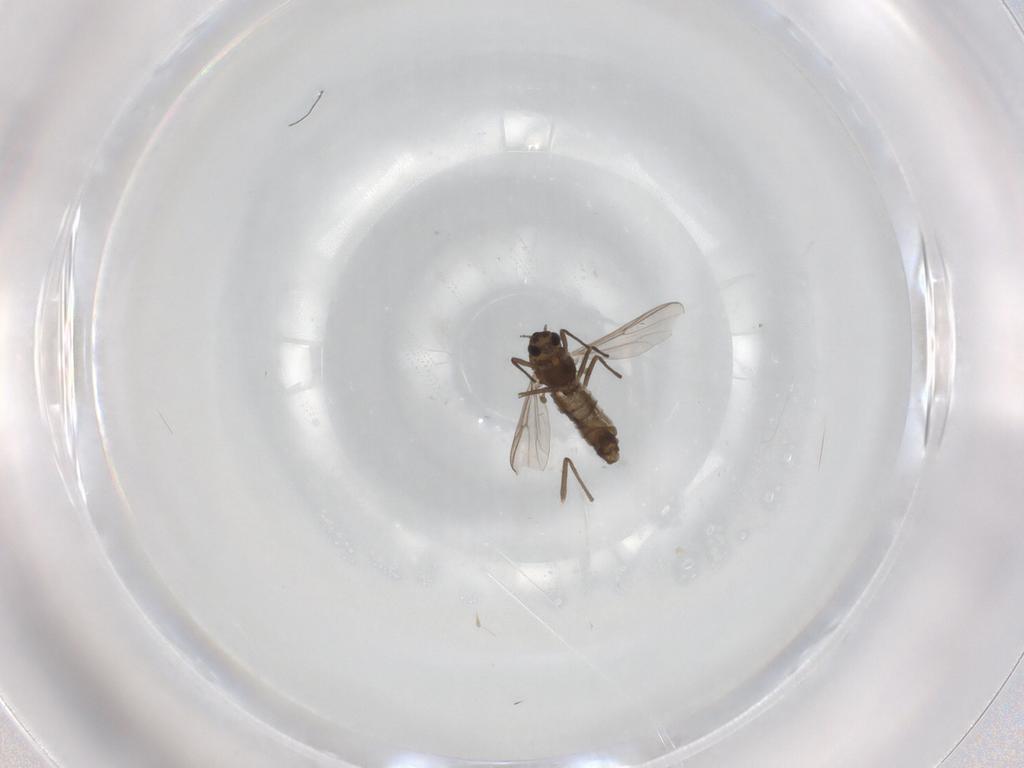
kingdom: Animalia
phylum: Arthropoda
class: Insecta
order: Diptera
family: Chironomidae
